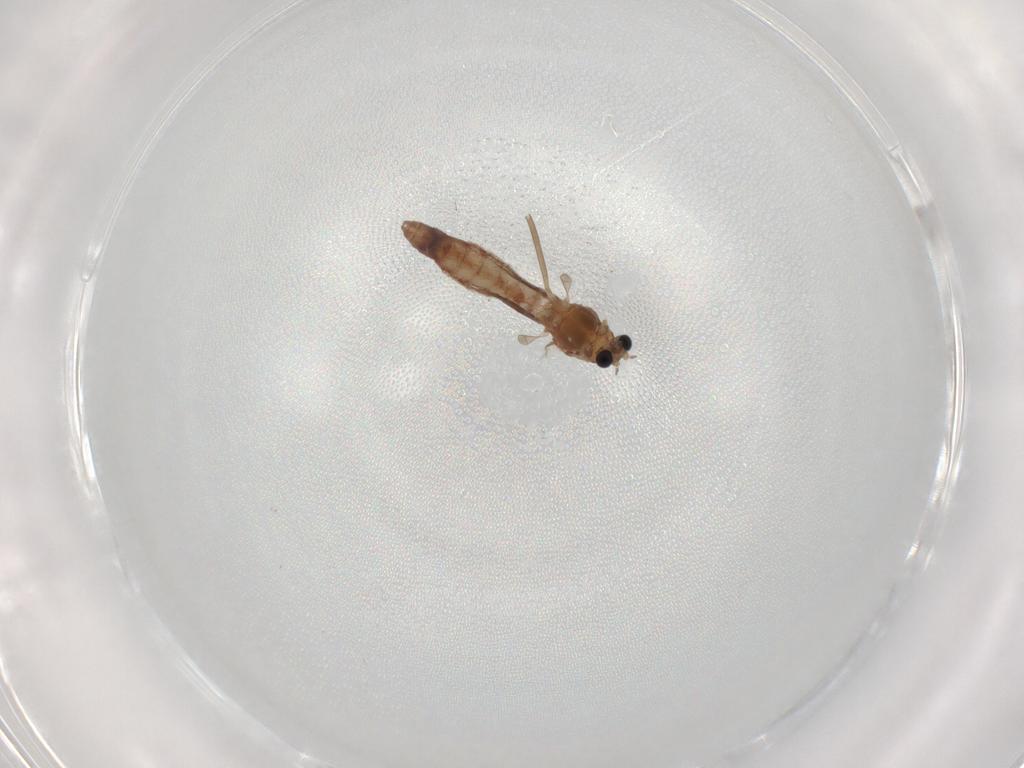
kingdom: Animalia
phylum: Arthropoda
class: Insecta
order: Diptera
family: Chironomidae
